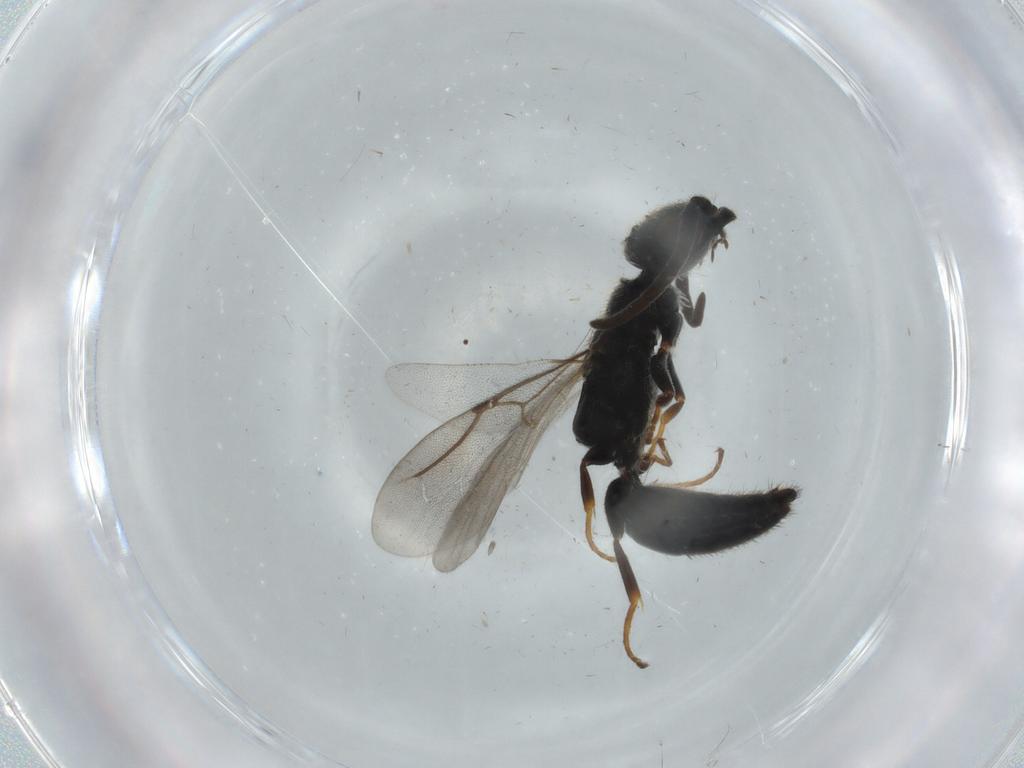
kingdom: Animalia
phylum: Arthropoda
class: Insecta
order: Hymenoptera
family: Bethylidae
